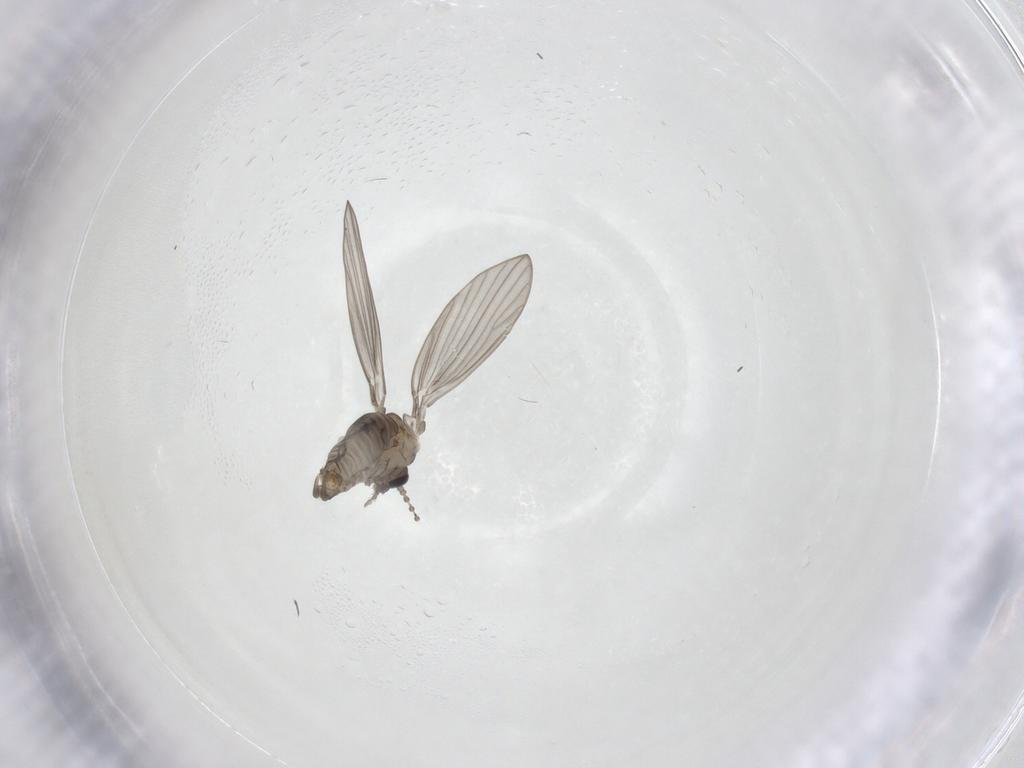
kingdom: Animalia
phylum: Arthropoda
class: Insecta
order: Diptera
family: Psychodidae
